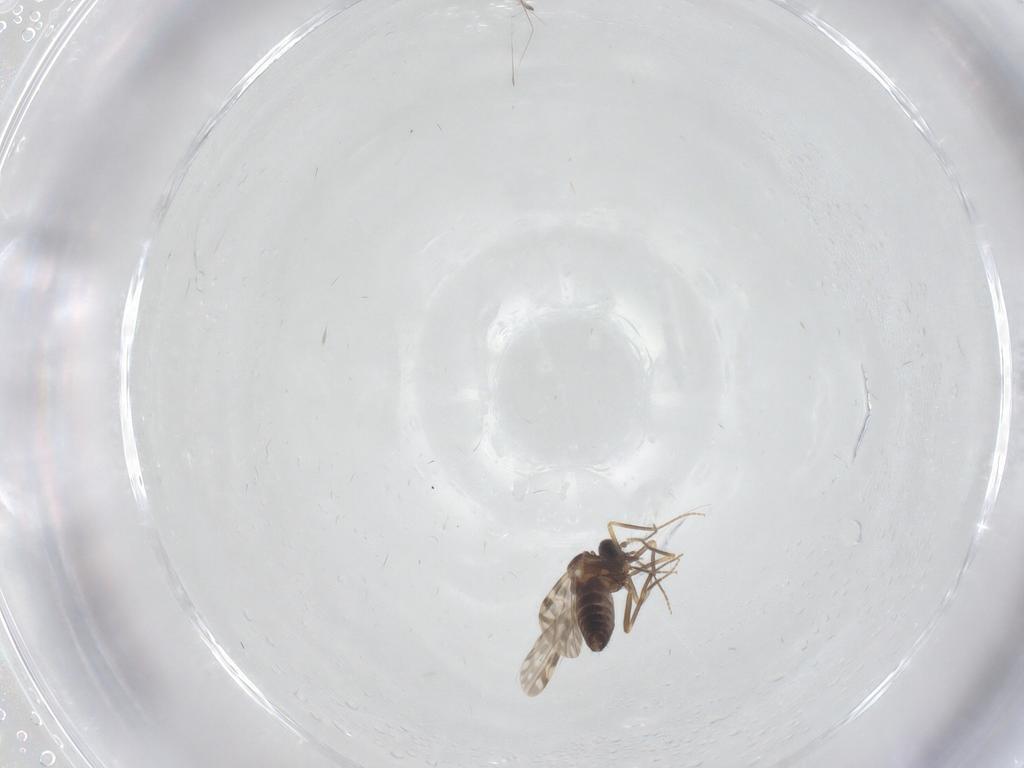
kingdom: Animalia
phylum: Arthropoda
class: Insecta
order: Diptera
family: Ceratopogonidae
